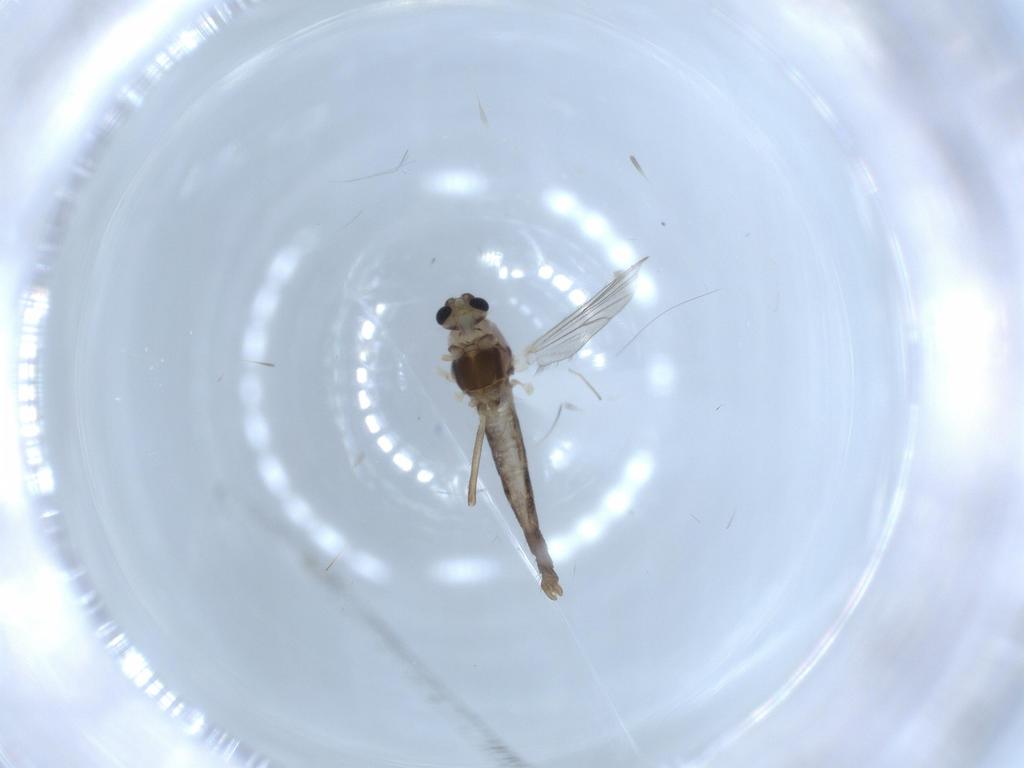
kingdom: Animalia
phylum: Arthropoda
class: Insecta
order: Diptera
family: Chironomidae
